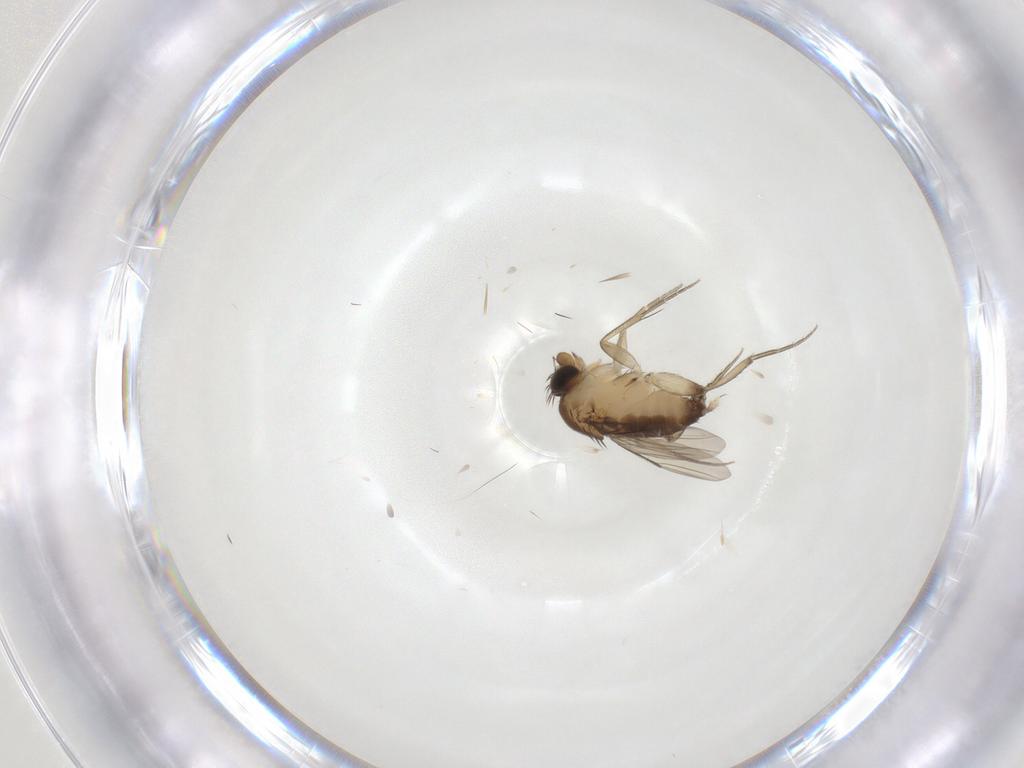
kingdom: Animalia
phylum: Arthropoda
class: Insecta
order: Diptera
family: Phoridae
